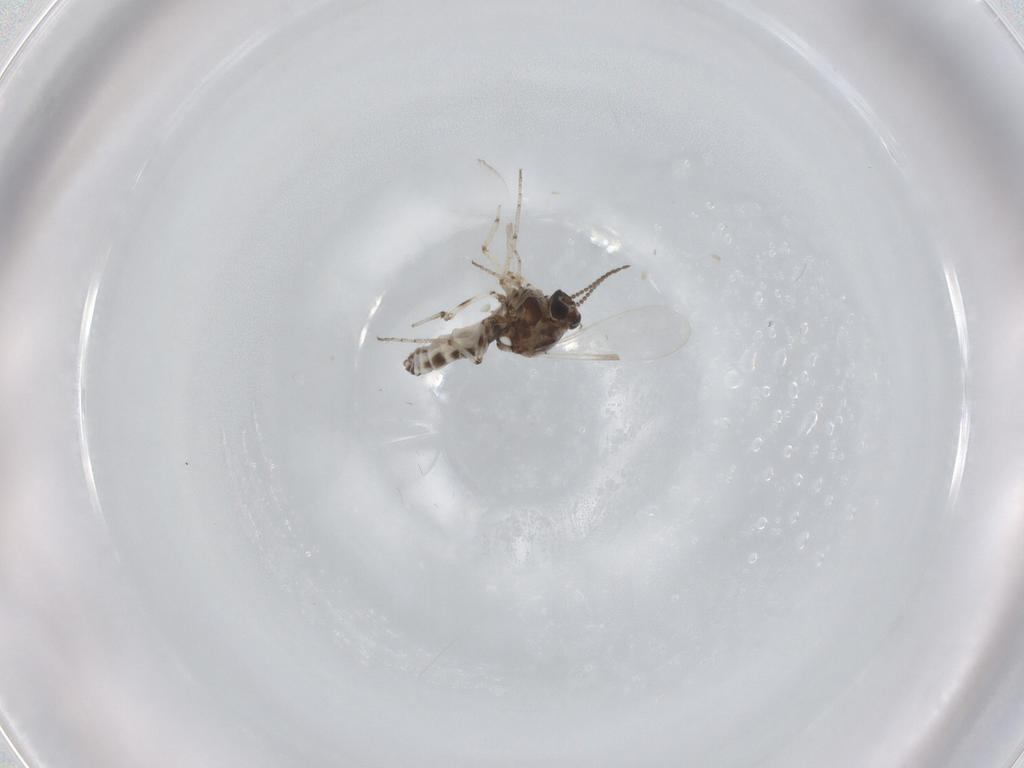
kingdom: Animalia
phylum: Arthropoda
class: Insecta
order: Diptera
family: Ceratopogonidae
